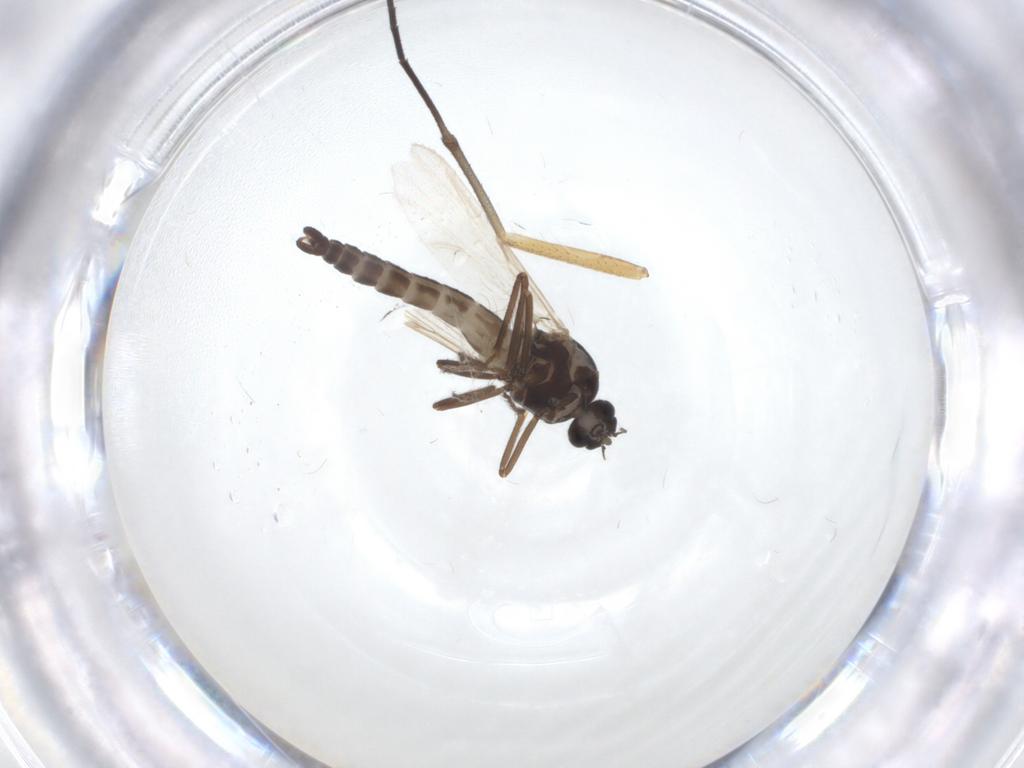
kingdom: Animalia
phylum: Arthropoda
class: Insecta
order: Diptera
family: Ceratopogonidae
